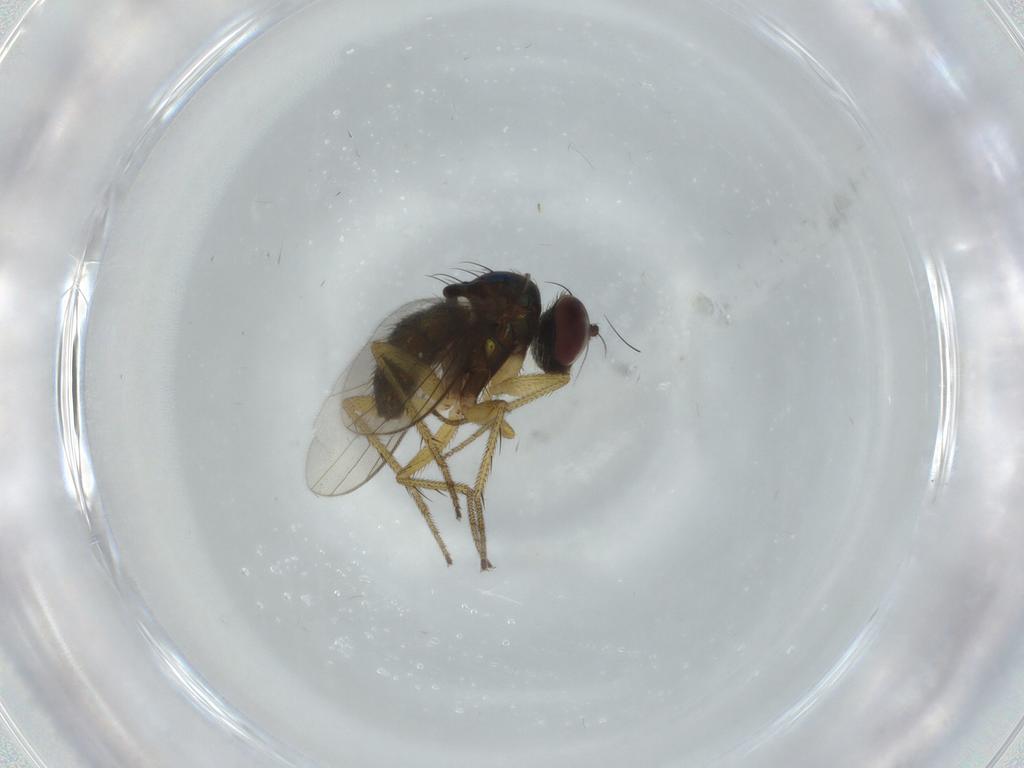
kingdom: Animalia
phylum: Arthropoda
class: Insecta
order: Diptera
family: Dolichopodidae
